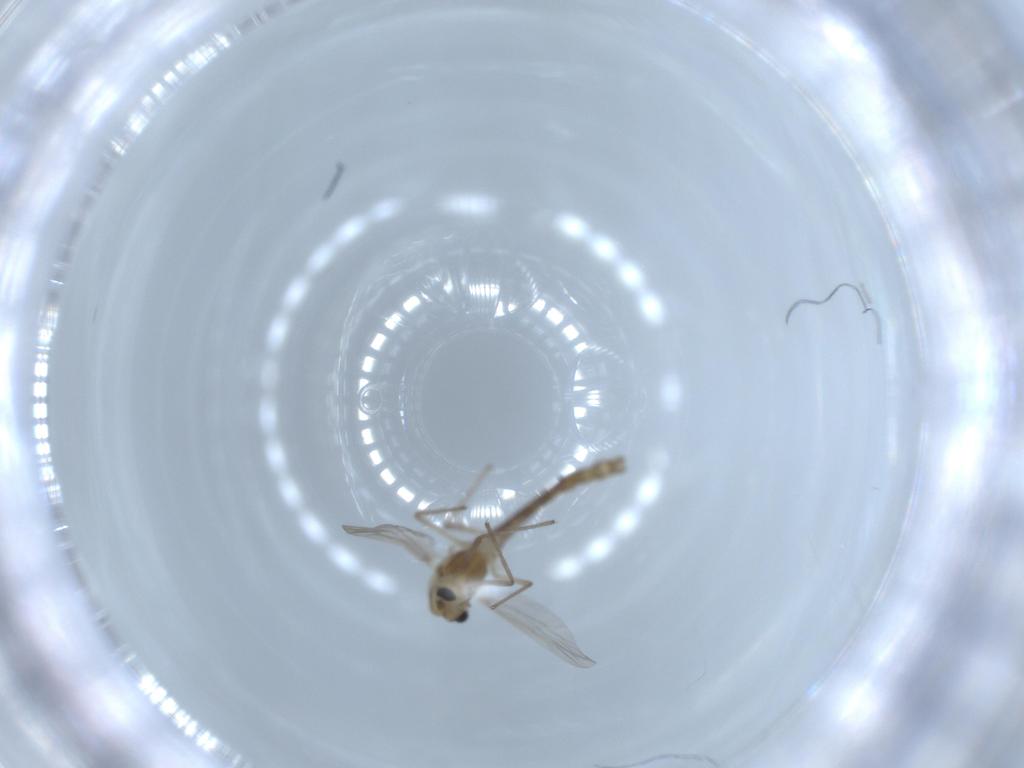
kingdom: Animalia
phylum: Arthropoda
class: Insecta
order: Diptera
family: Chironomidae
